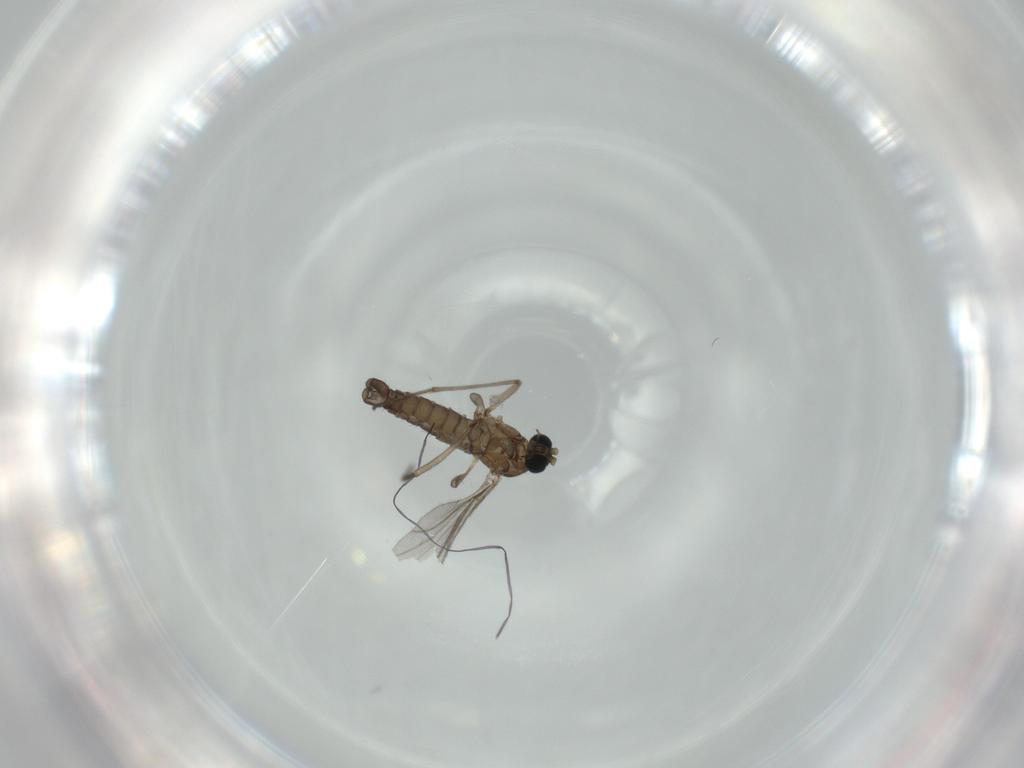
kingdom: Animalia
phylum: Arthropoda
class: Insecta
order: Diptera
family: Sciaridae
